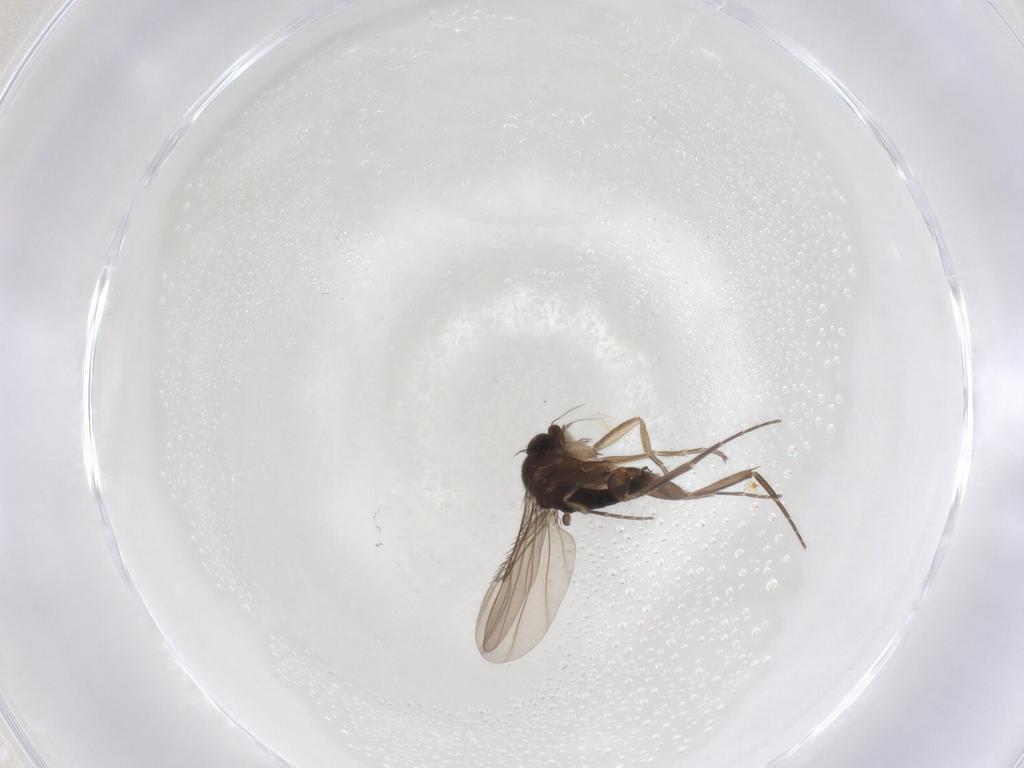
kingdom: Animalia
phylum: Arthropoda
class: Insecta
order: Diptera
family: Phoridae
